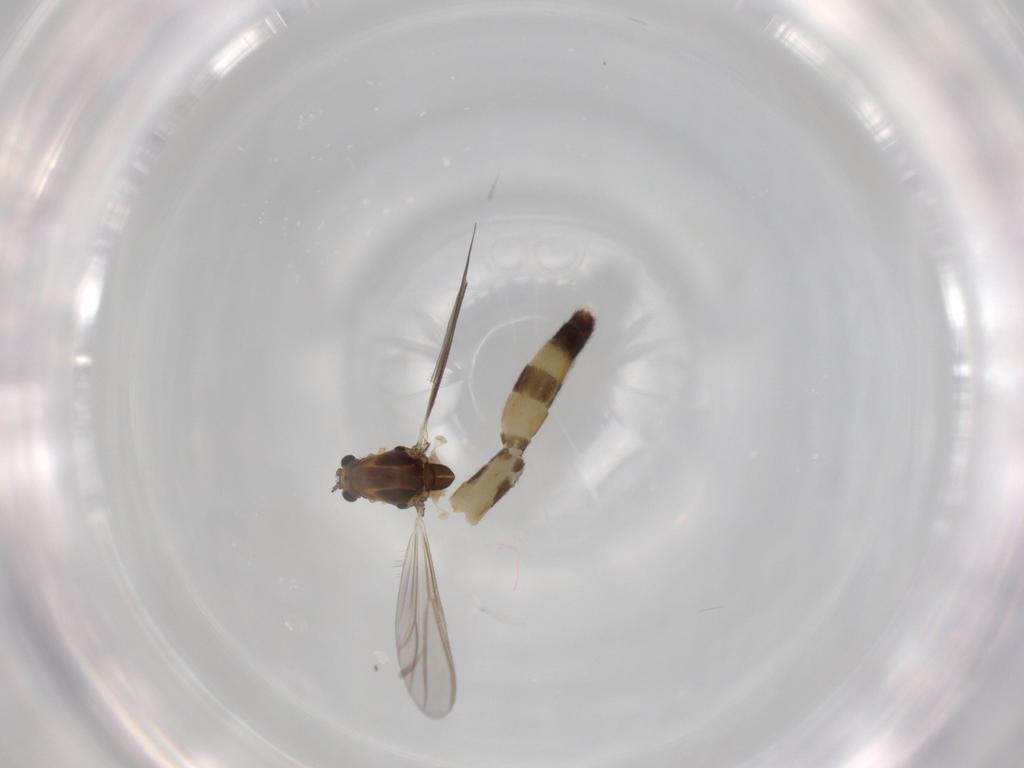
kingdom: Animalia
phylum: Arthropoda
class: Insecta
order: Diptera
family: Chironomidae
